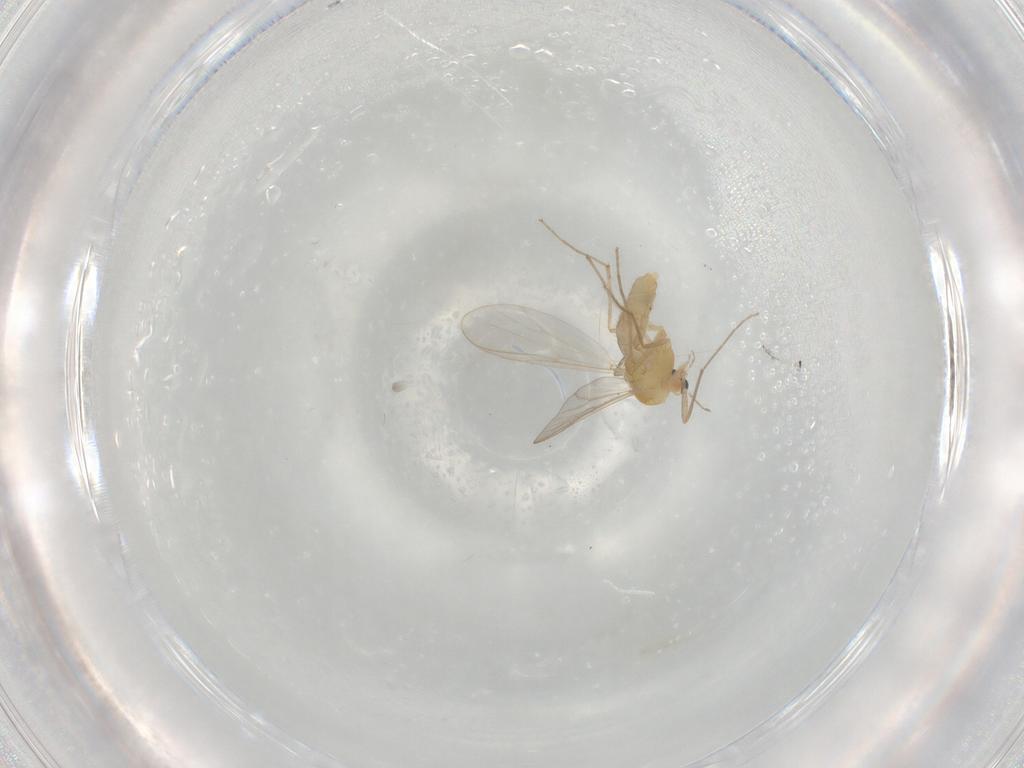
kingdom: Animalia
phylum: Arthropoda
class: Insecta
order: Diptera
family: Chironomidae
